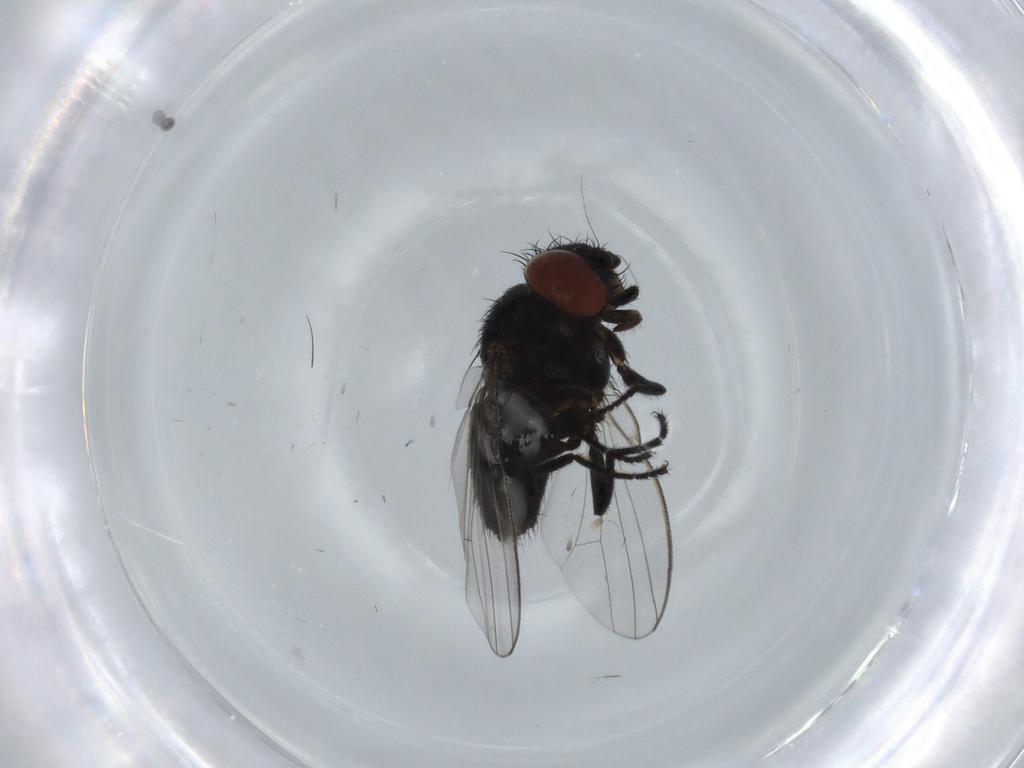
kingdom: Animalia
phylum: Arthropoda
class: Insecta
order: Diptera
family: Milichiidae
